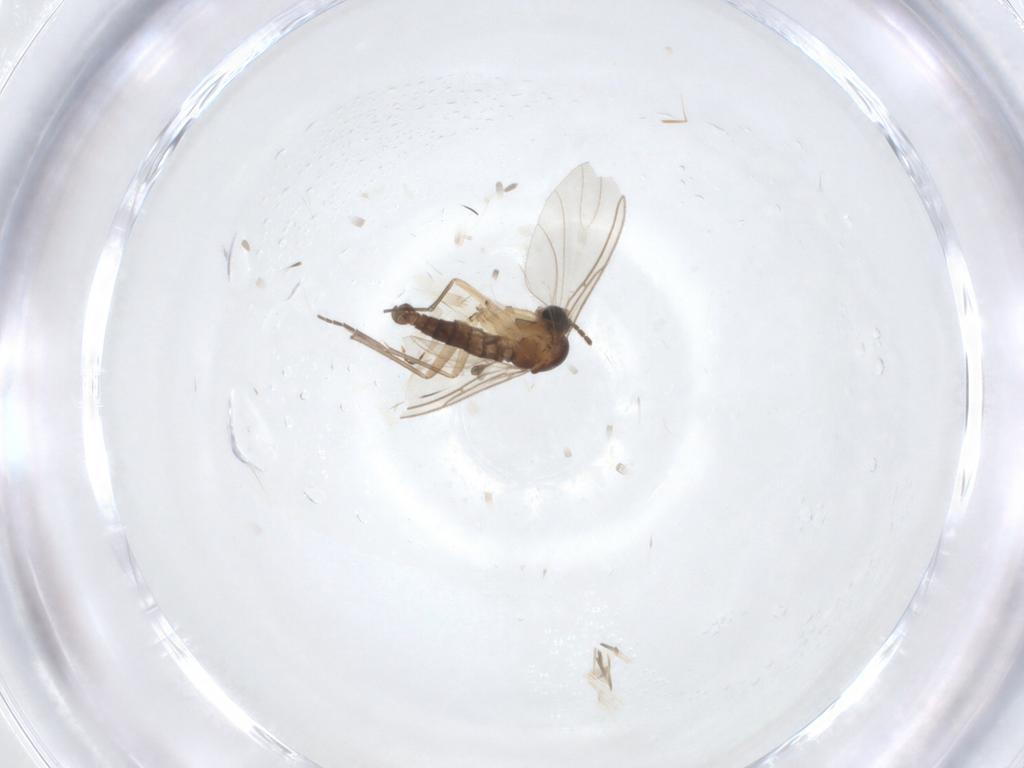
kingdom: Animalia
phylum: Arthropoda
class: Insecta
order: Diptera
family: Sciaridae
